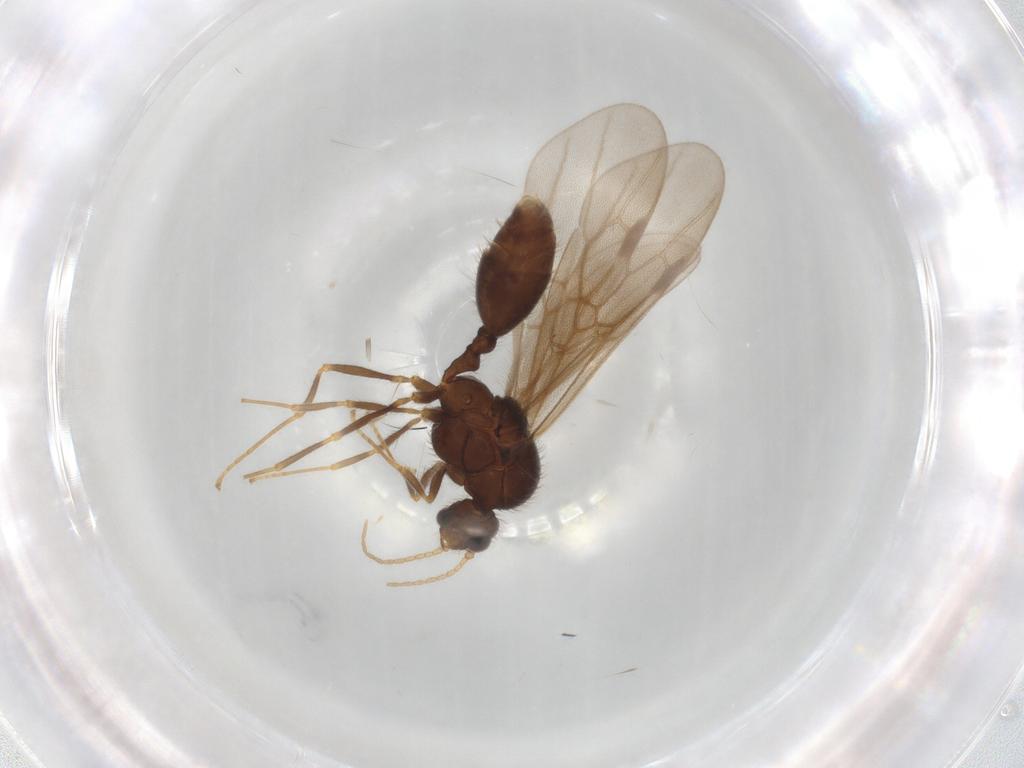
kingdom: Animalia
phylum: Arthropoda
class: Insecta
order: Hymenoptera
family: Formicidae
